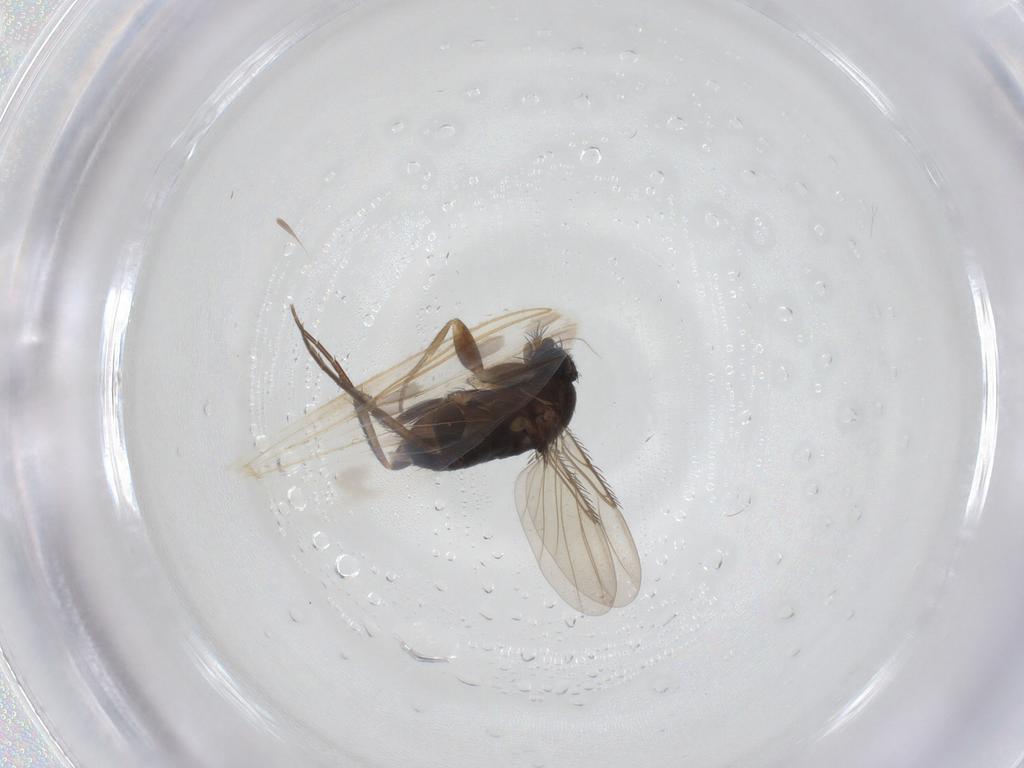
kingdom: Animalia
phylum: Arthropoda
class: Insecta
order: Diptera
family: Phoridae
